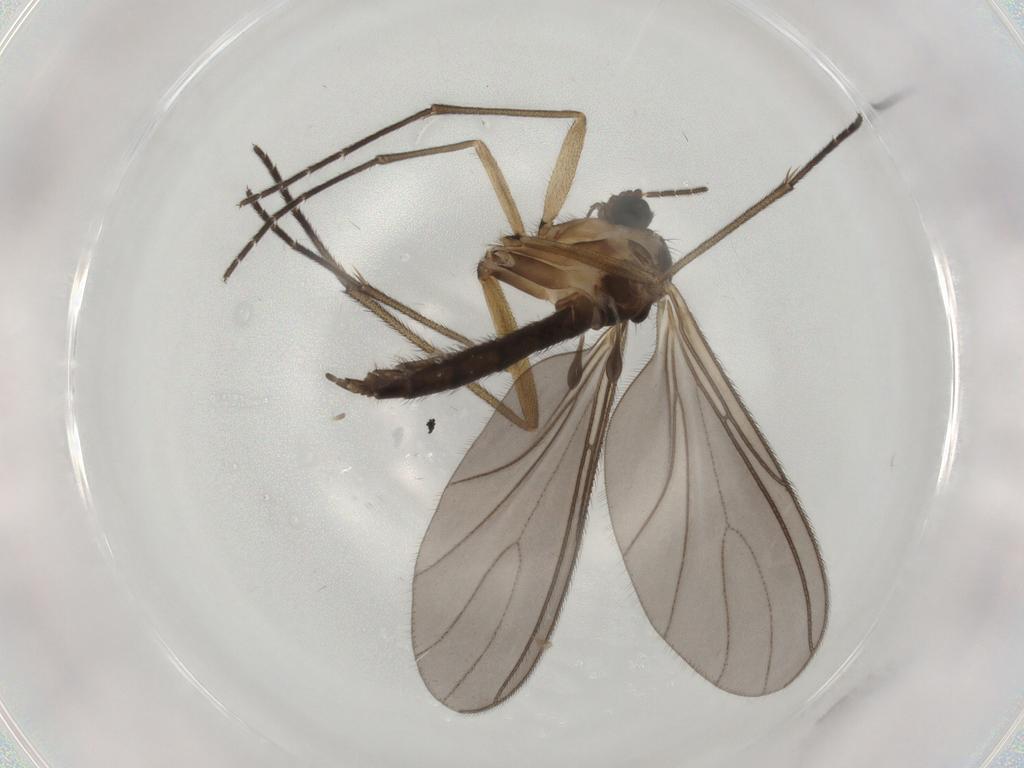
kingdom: Animalia
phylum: Arthropoda
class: Insecta
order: Diptera
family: Sciaridae
